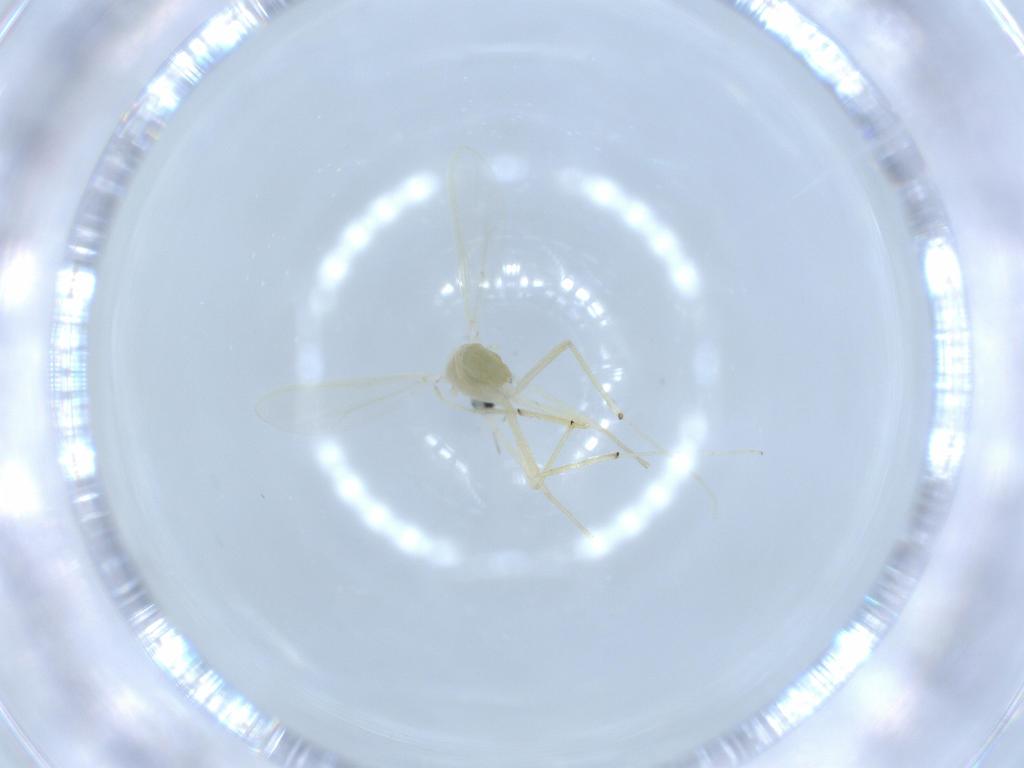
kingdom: Animalia
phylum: Arthropoda
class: Insecta
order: Diptera
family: Chironomidae
